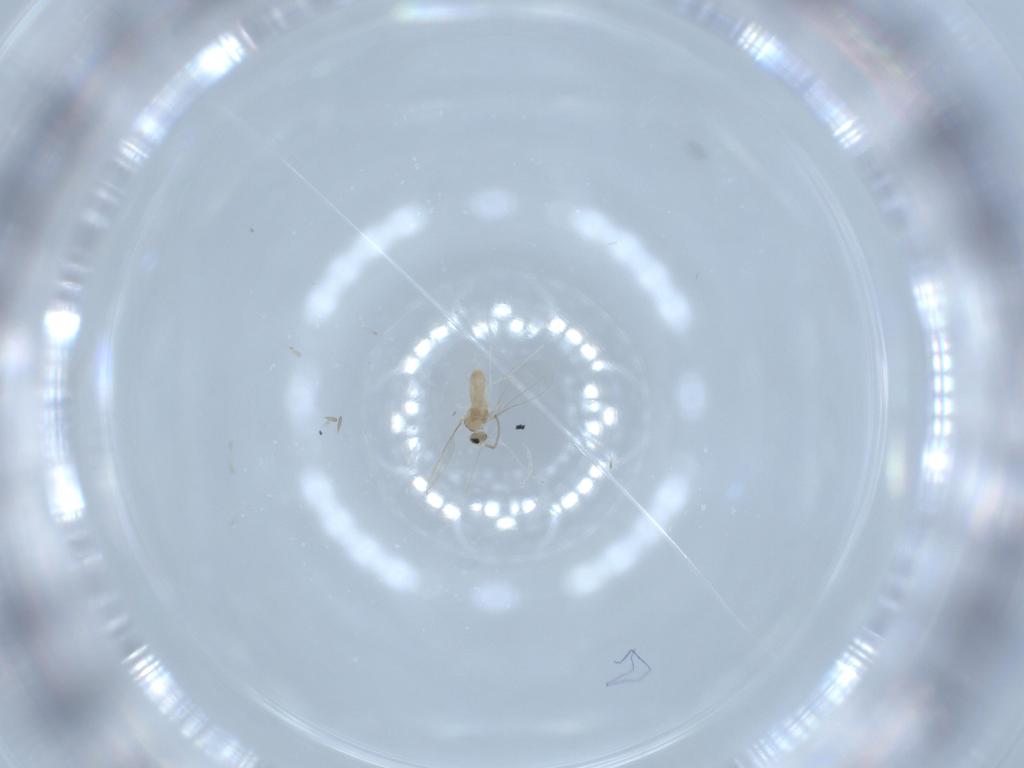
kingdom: Animalia
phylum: Arthropoda
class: Insecta
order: Diptera
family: Cecidomyiidae
